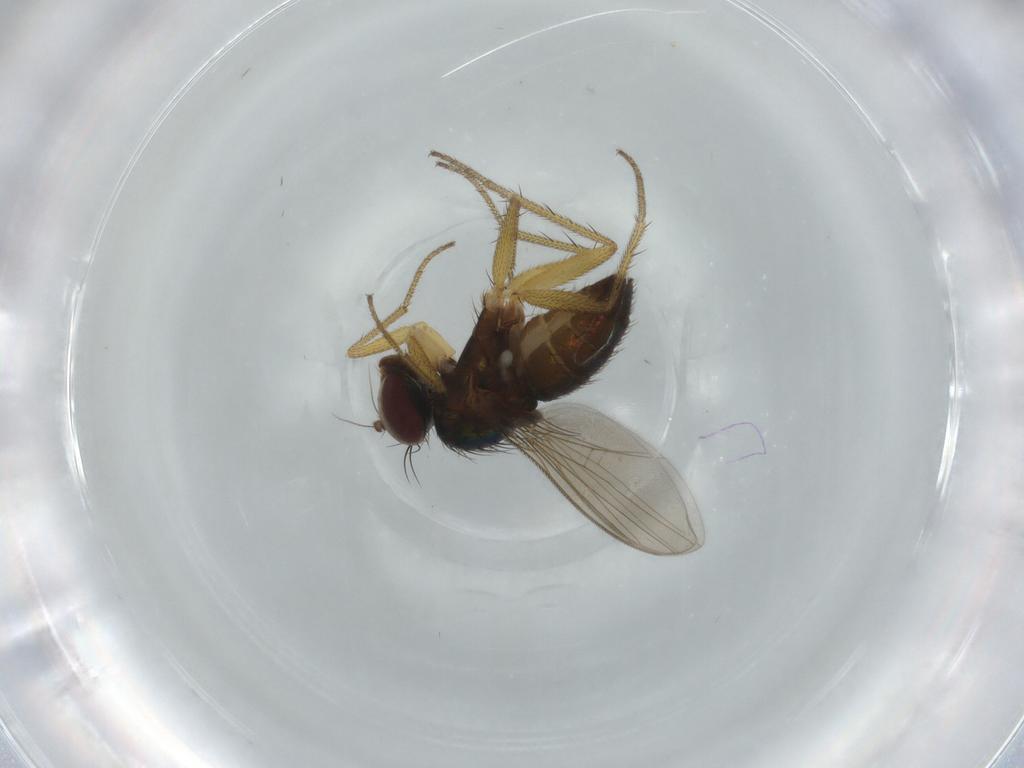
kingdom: Animalia
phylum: Arthropoda
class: Insecta
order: Diptera
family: Dolichopodidae
